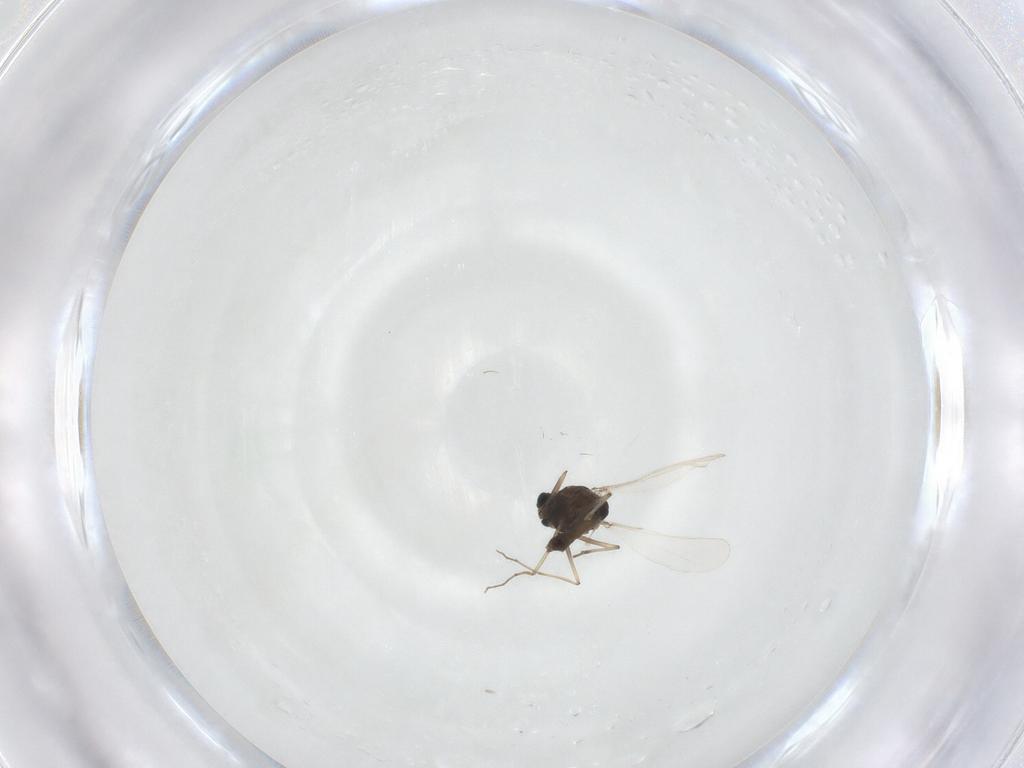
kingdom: Animalia
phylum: Arthropoda
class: Insecta
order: Diptera
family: Chironomidae
